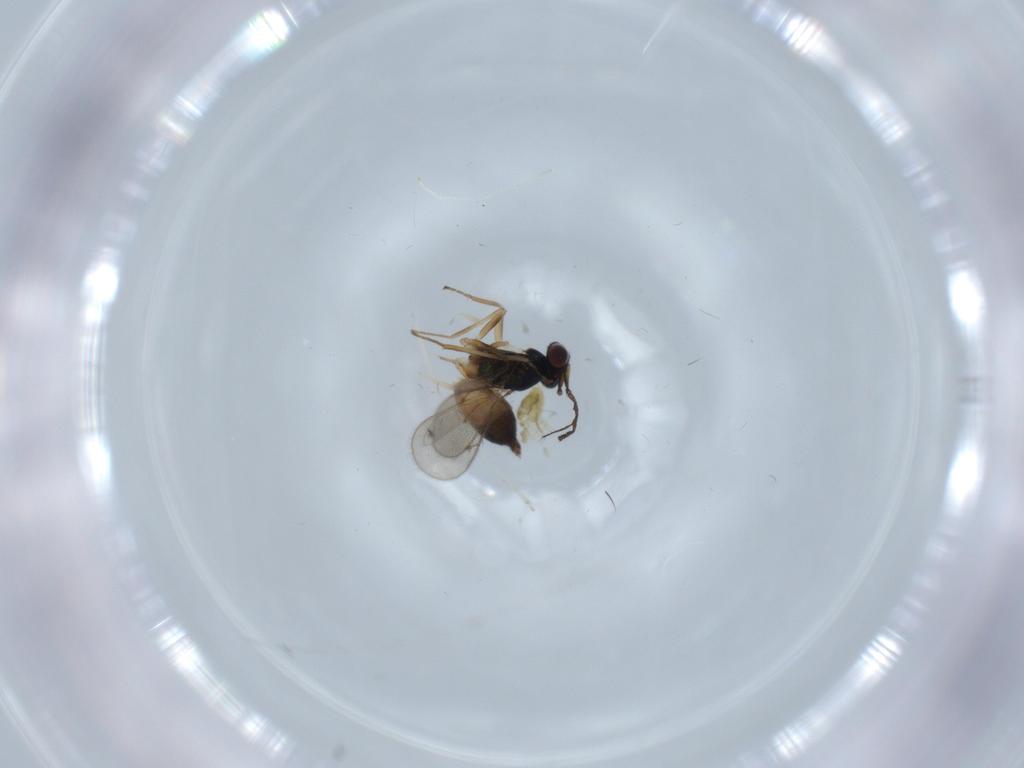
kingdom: Animalia
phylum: Arthropoda
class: Insecta
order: Hymenoptera
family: Eulophidae
